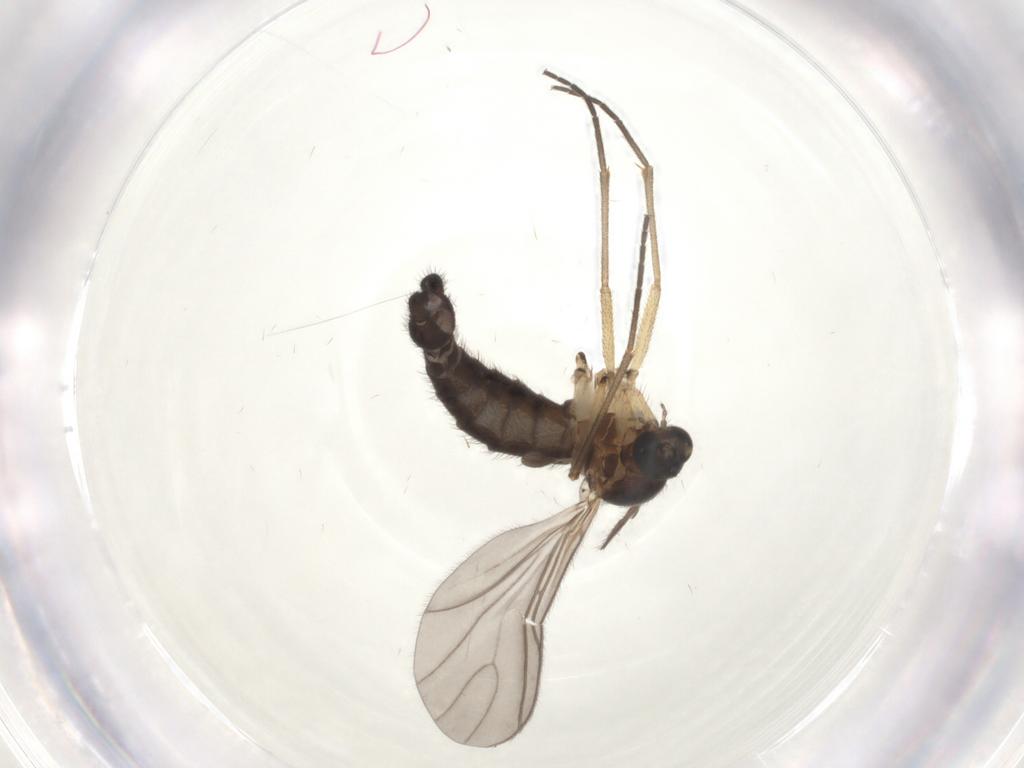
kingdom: Animalia
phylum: Arthropoda
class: Insecta
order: Diptera
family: Sciaridae
